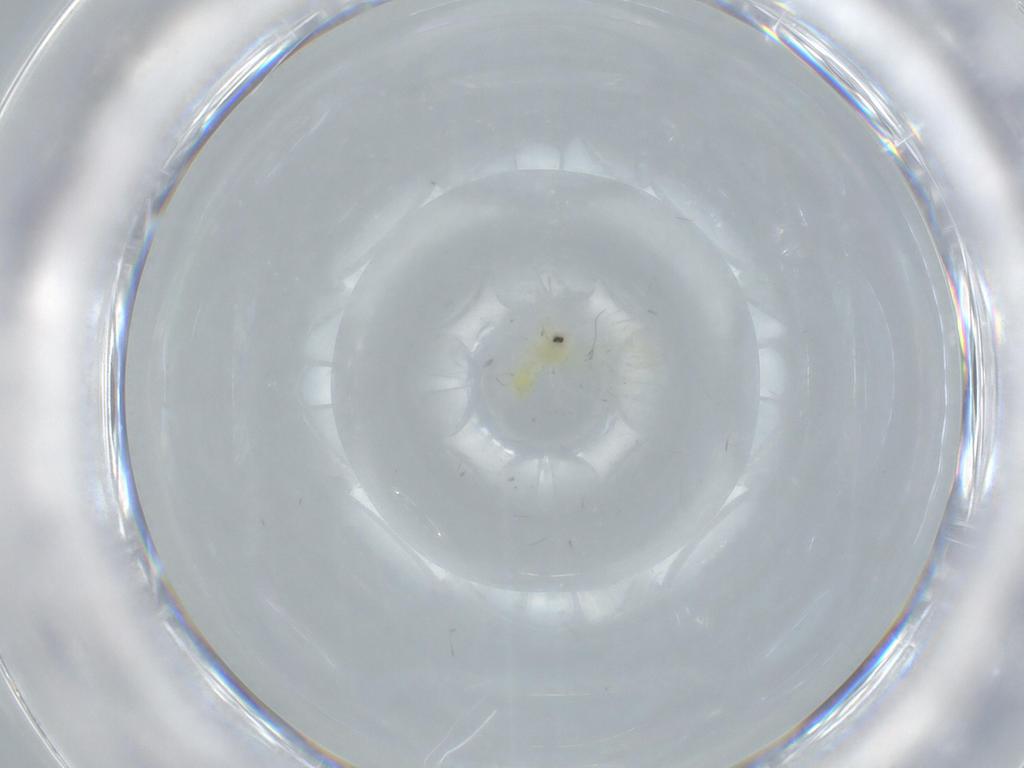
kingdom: Animalia
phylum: Arthropoda
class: Insecta
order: Hemiptera
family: Aleyrodidae
